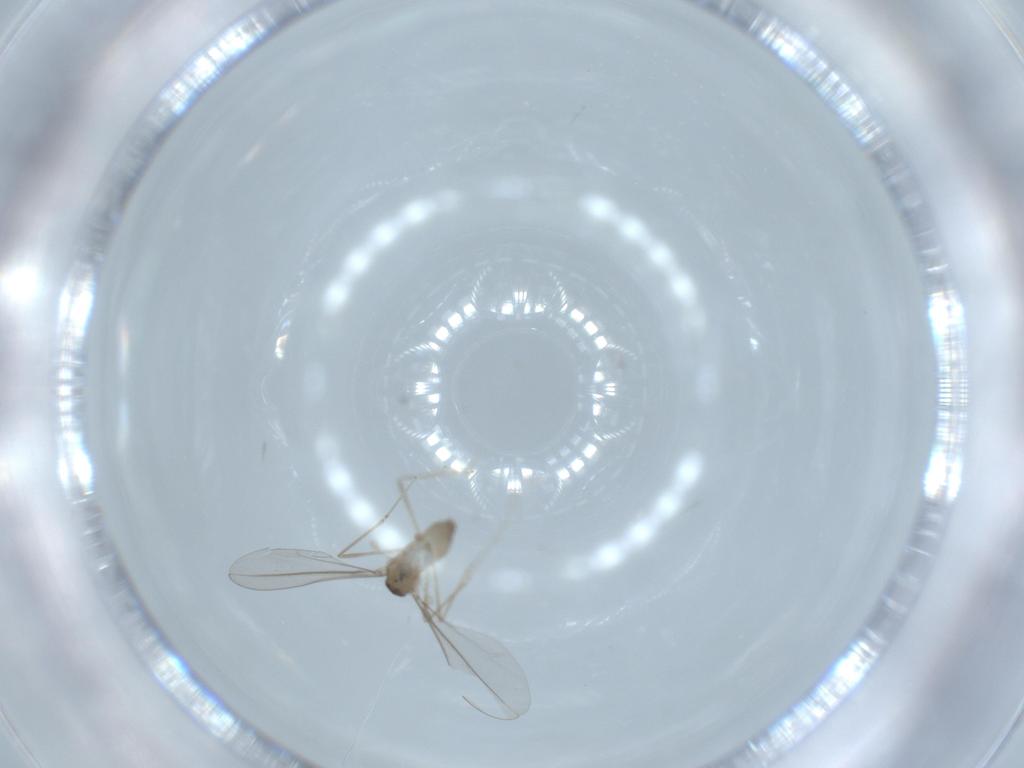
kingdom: Animalia
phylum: Arthropoda
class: Insecta
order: Diptera
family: Cecidomyiidae
